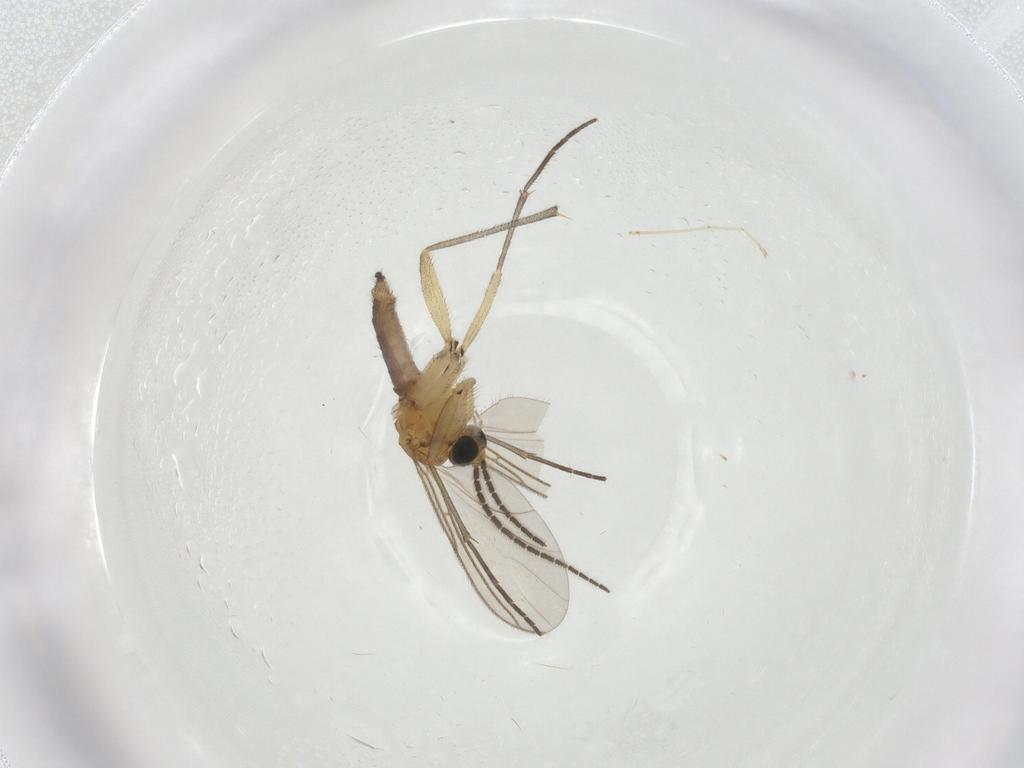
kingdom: Animalia
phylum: Arthropoda
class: Insecta
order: Diptera
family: Sciaridae
